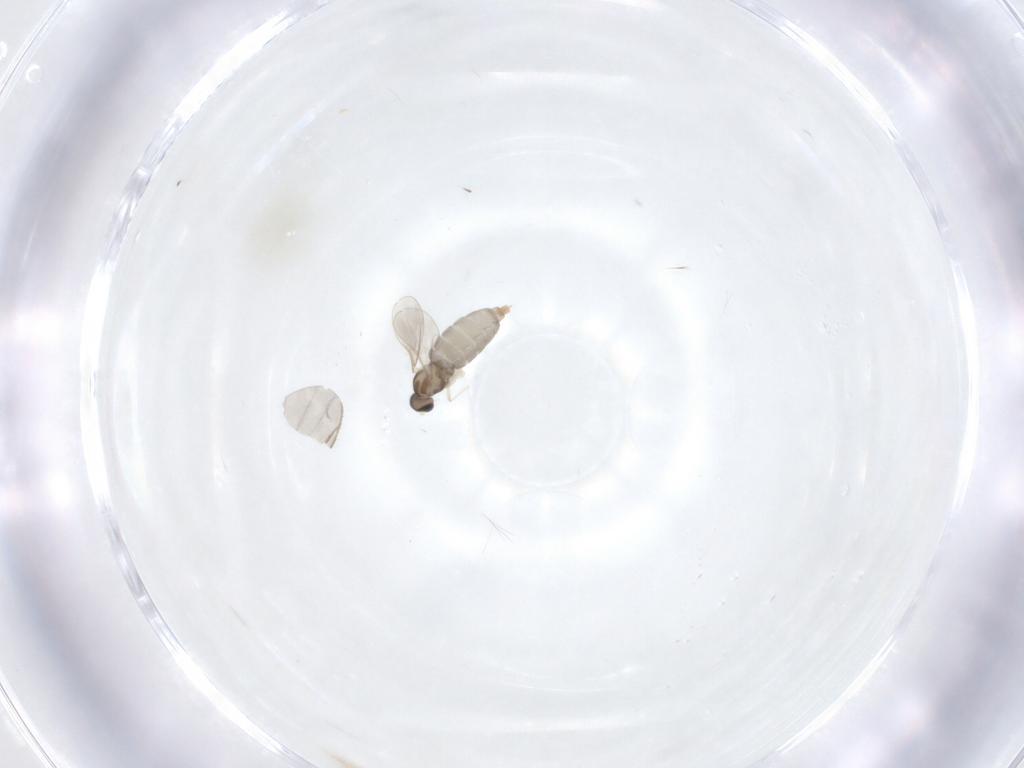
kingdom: Animalia
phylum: Arthropoda
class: Insecta
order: Diptera
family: Drosophilidae
